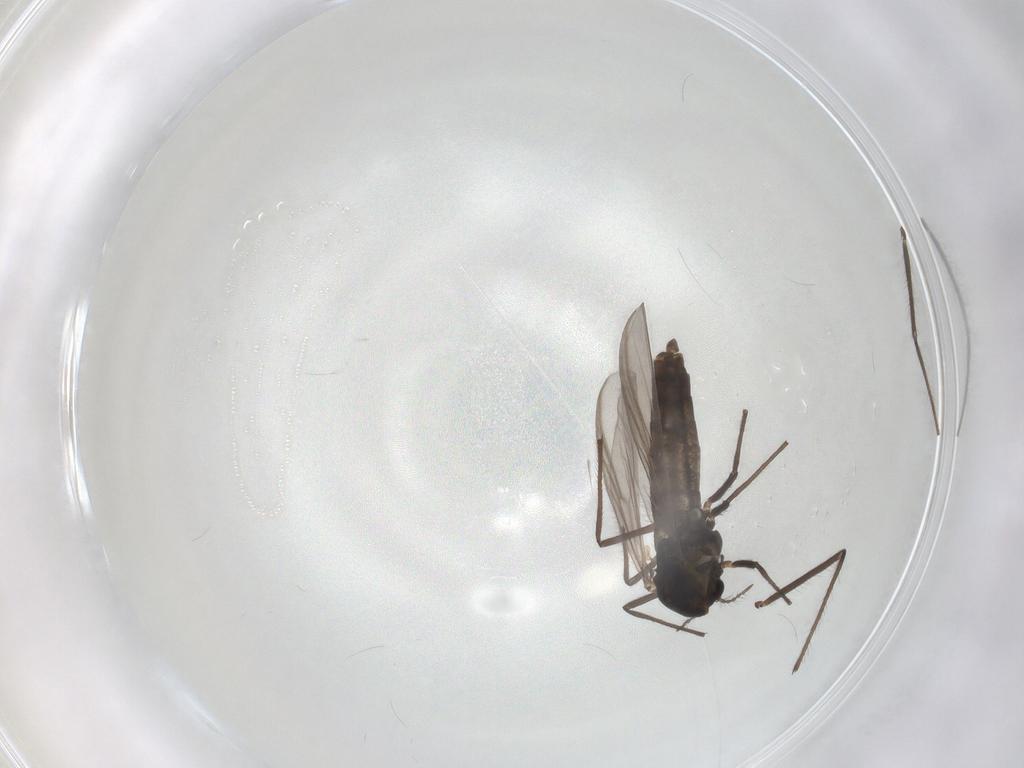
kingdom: Animalia
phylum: Arthropoda
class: Insecta
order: Diptera
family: Chironomidae
